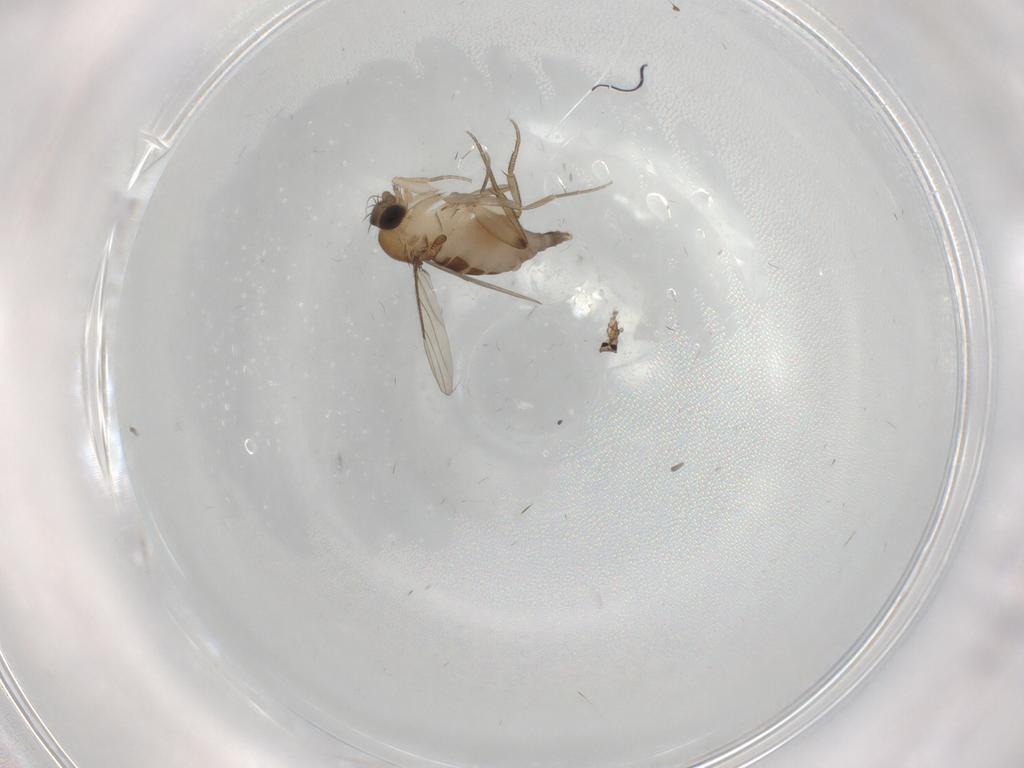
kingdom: Animalia
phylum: Arthropoda
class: Insecta
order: Diptera
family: Phoridae
